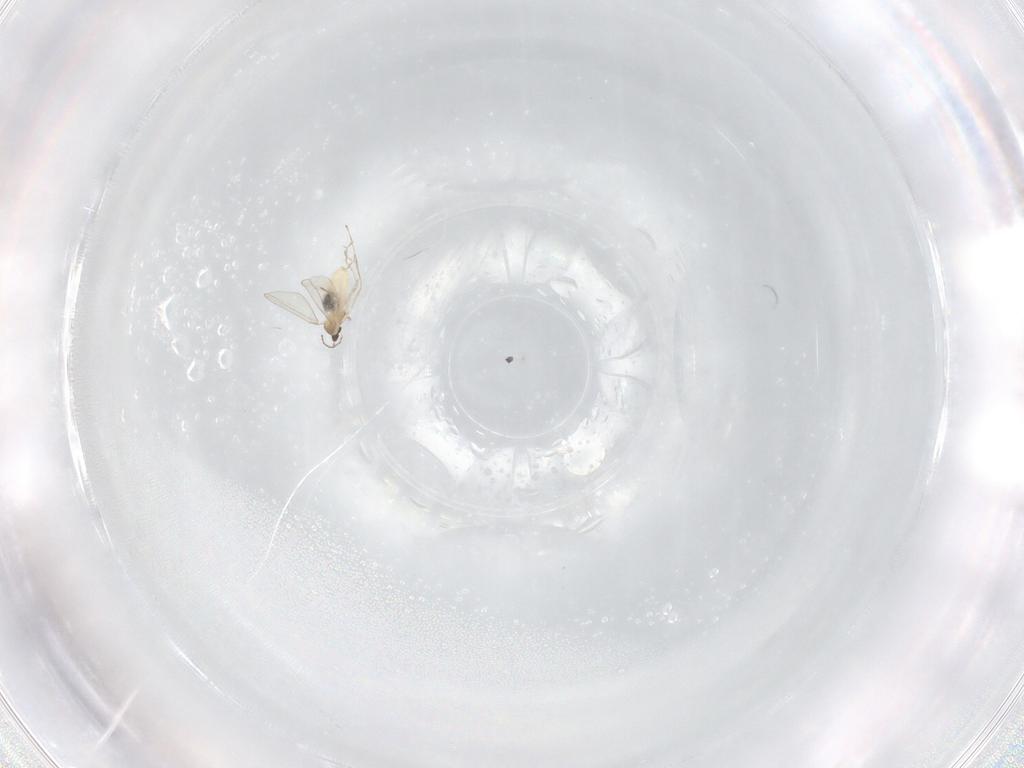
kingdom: Animalia
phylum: Arthropoda
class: Insecta
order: Diptera
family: Cecidomyiidae
